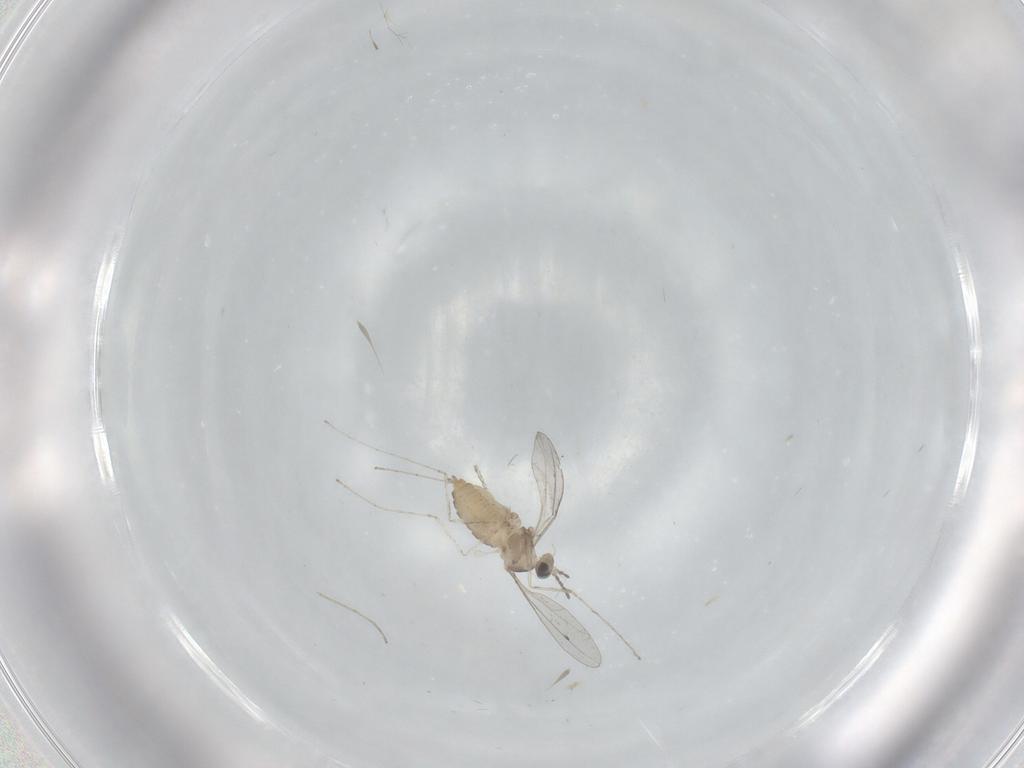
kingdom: Animalia
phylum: Arthropoda
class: Insecta
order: Diptera
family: Cecidomyiidae
